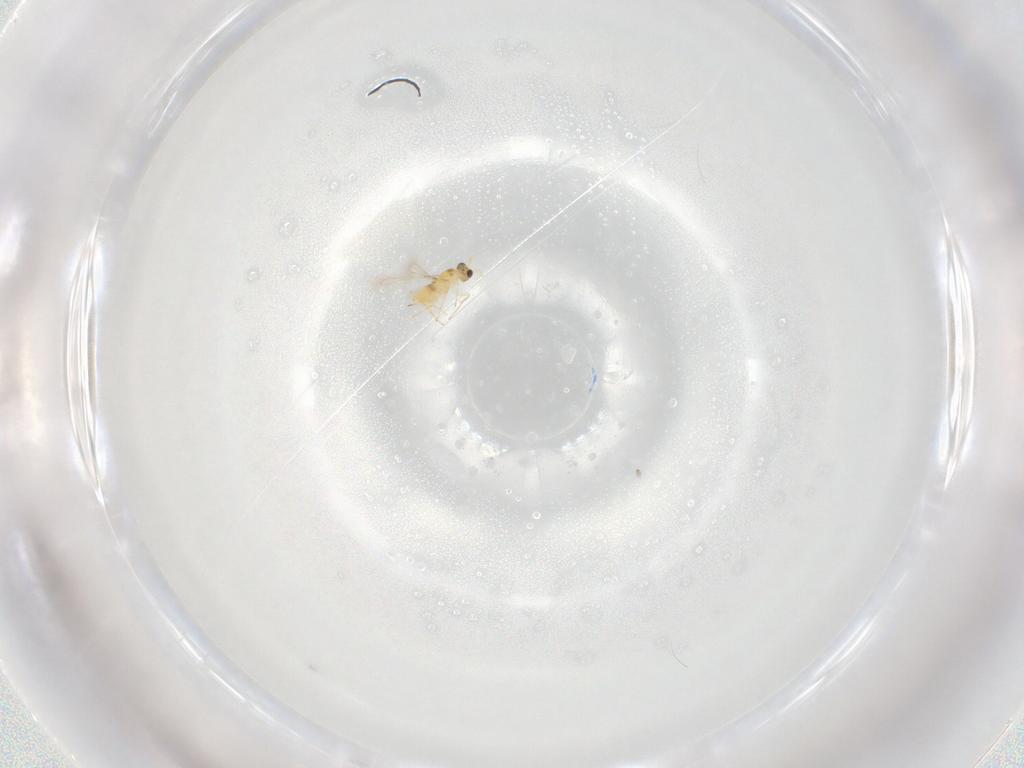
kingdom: Animalia
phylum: Arthropoda
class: Insecta
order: Hymenoptera
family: Mymaridae
